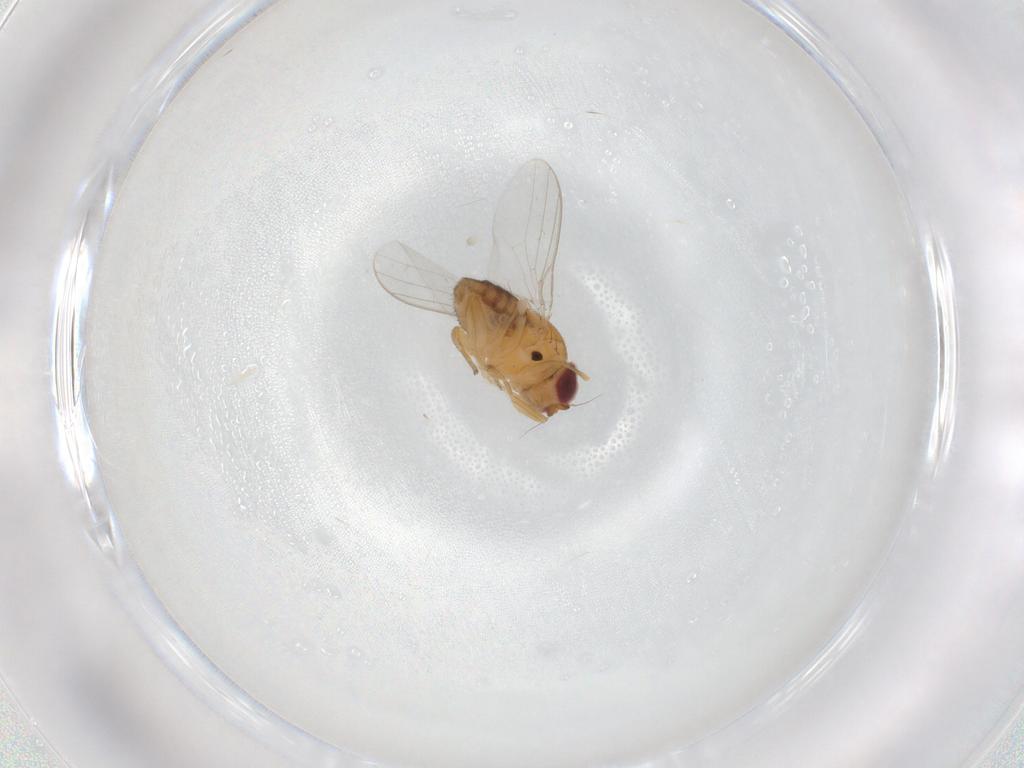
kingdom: Animalia
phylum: Arthropoda
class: Insecta
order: Diptera
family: Chloropidae
